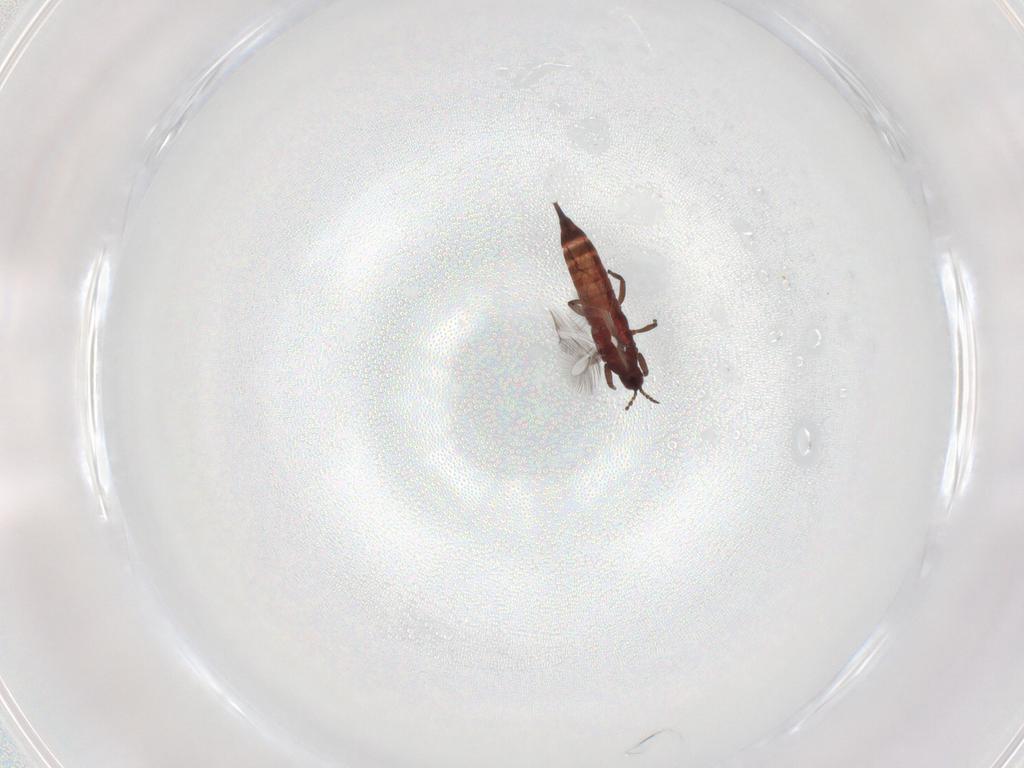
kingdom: Animalia
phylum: Arthropoda
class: Insecta
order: Thysanoptera
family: Phlaeothripidae
